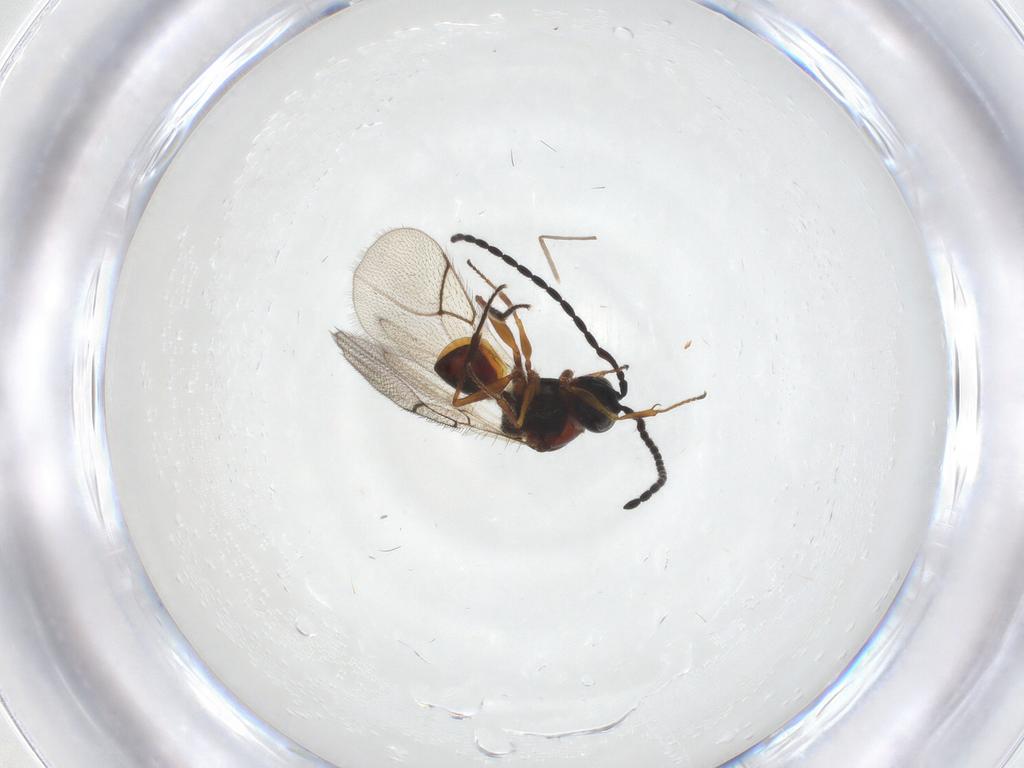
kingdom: Animalia
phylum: Arthropoda
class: Insecta
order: Hymenoptera
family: Figitidae
